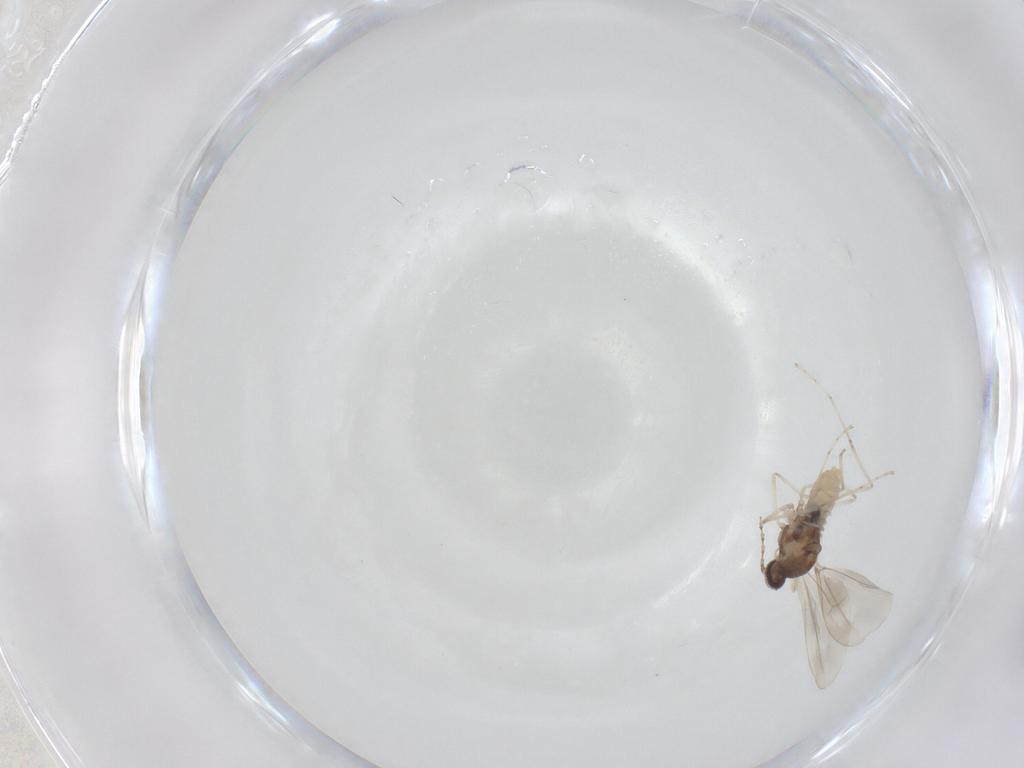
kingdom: Animalia
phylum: Arthropoda
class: Insecta
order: Diptera
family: Cecidomyiidae
